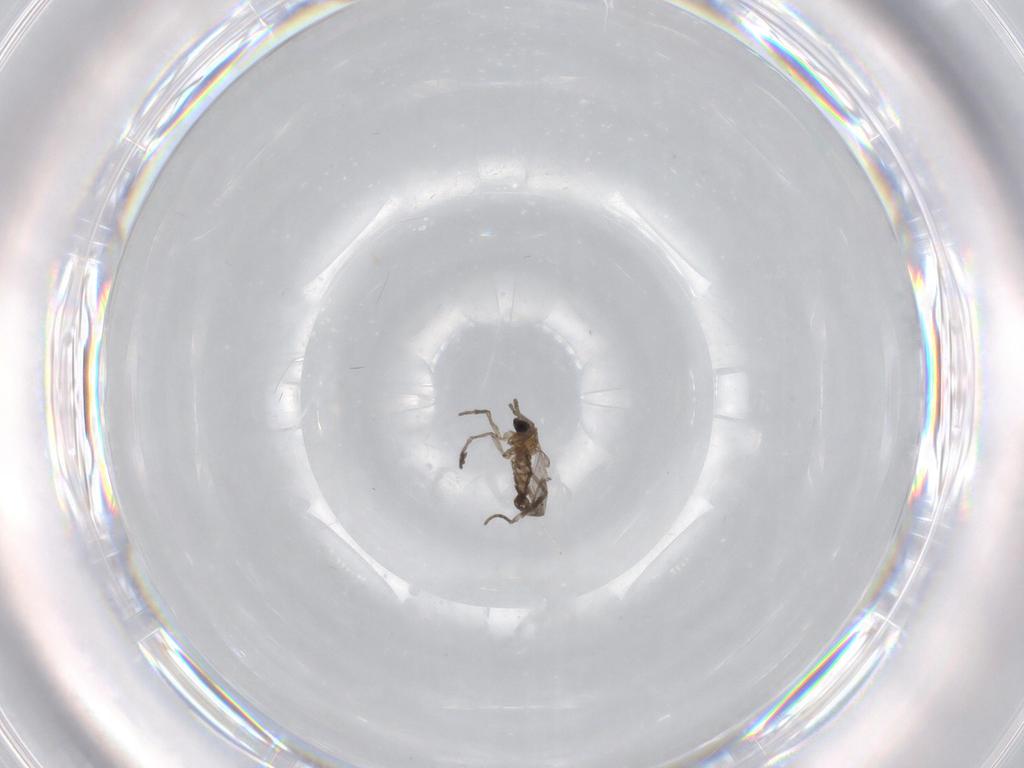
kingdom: Animalia
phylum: Arthropoda
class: Insecta
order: Diptera
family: Sciaridae
